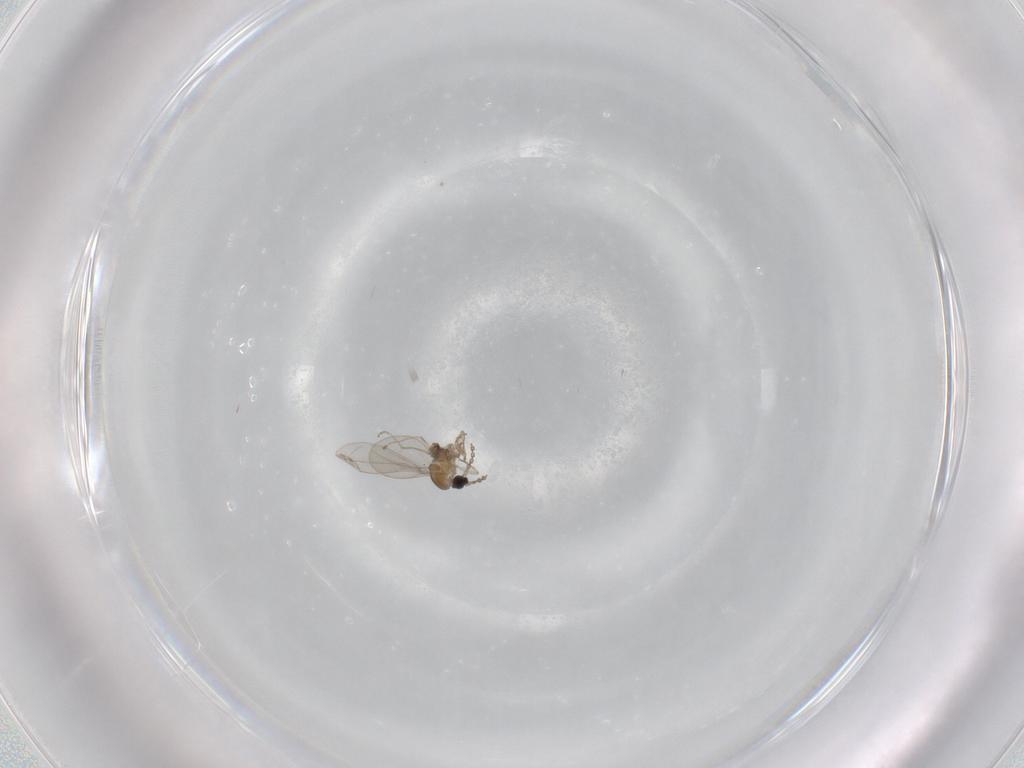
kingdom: Animalia
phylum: Arthropoda
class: Insecta
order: Diptera
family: Cecidomyiidae
